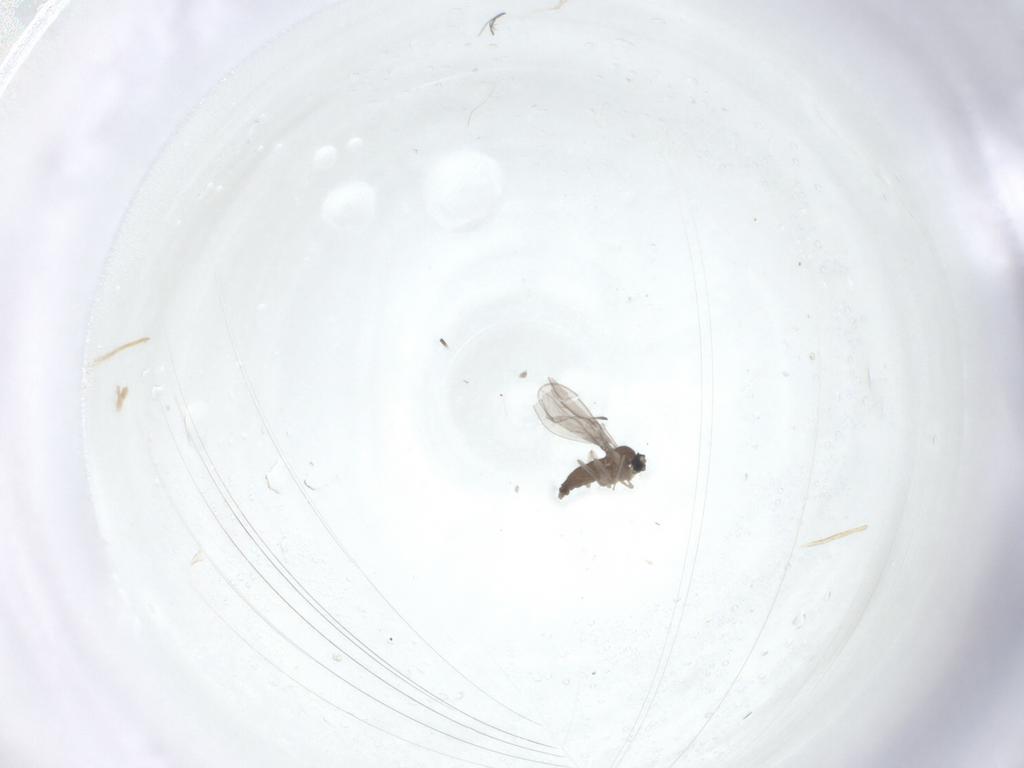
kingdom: Animalia
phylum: Arthropoda
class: Insecta
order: Diptera
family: Cecidomyiidae
